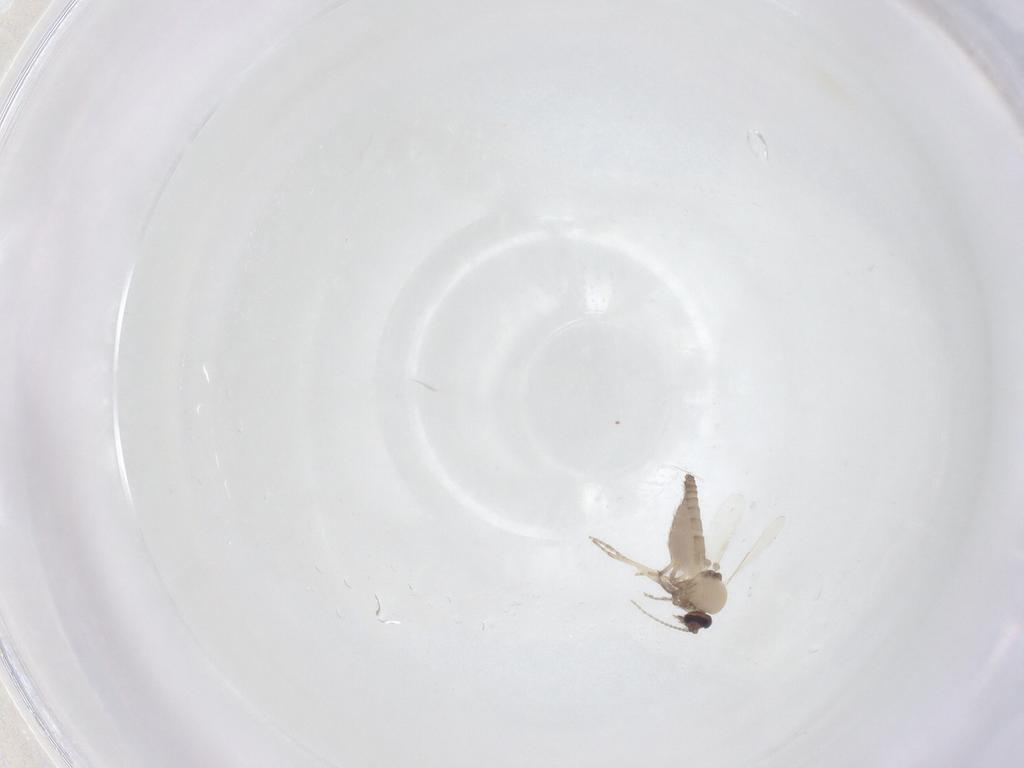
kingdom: Animalia
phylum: Arthropoda
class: Insecta
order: Diptera
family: Ceratopogonidae
